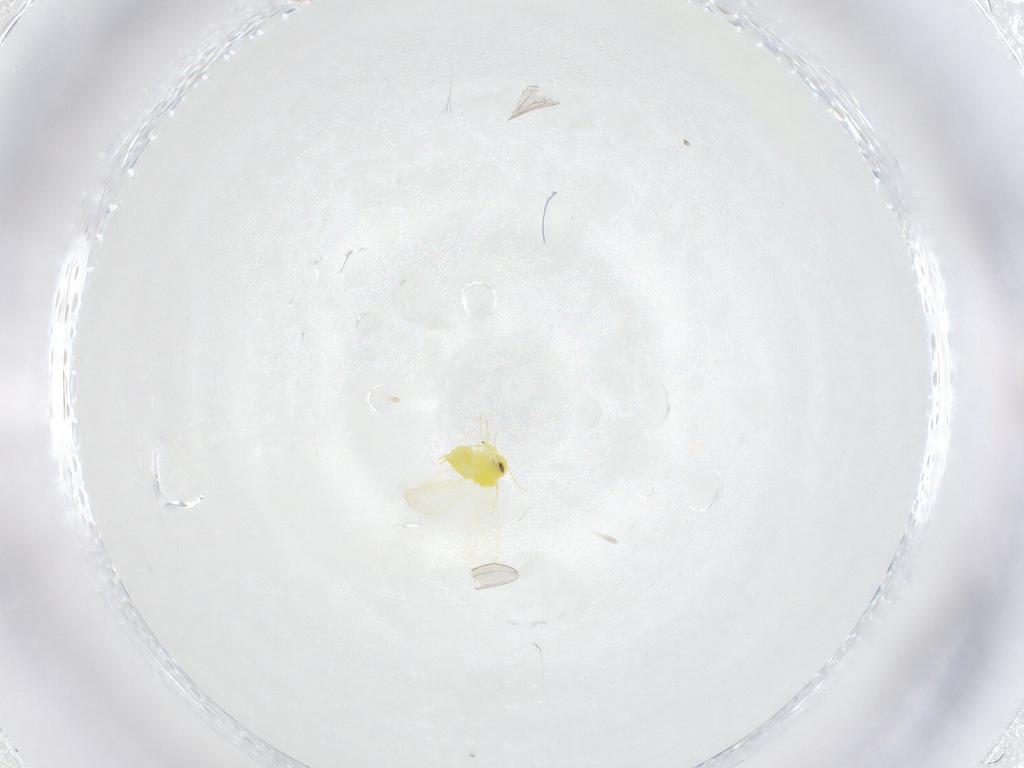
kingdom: Animalia
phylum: Arthropoda
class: Insecta
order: Hemiptera
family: Aleyrodidae
